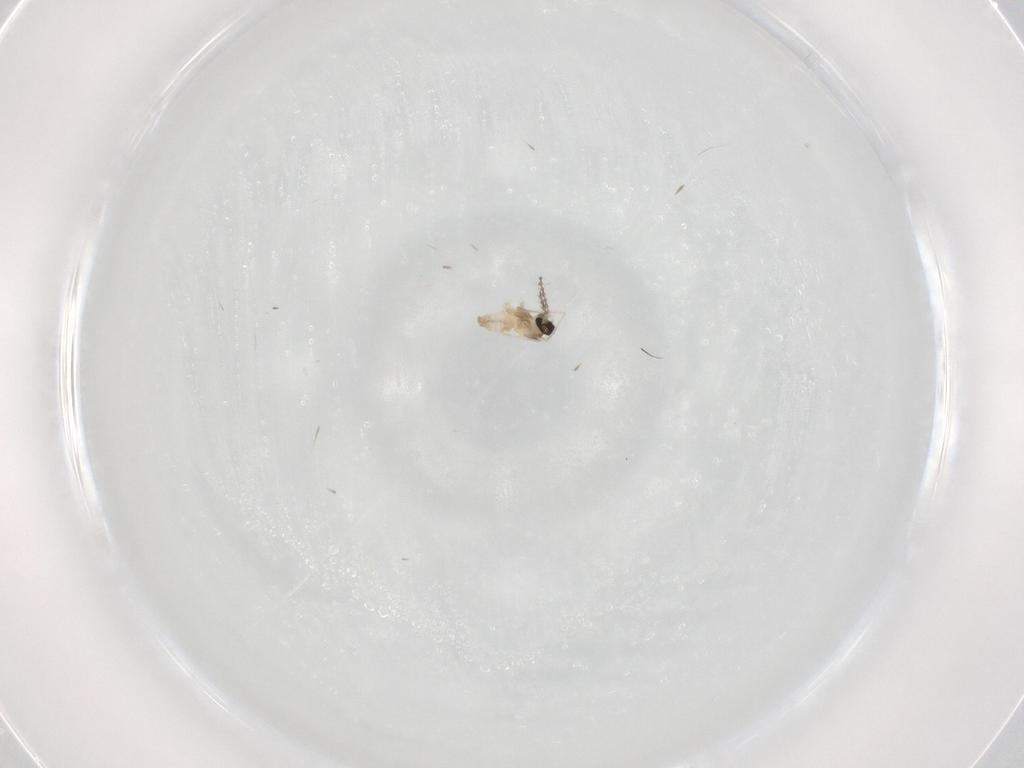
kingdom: Animalia
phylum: Arthropoda
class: Insecta
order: Diptera
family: Cecidomyiidae
